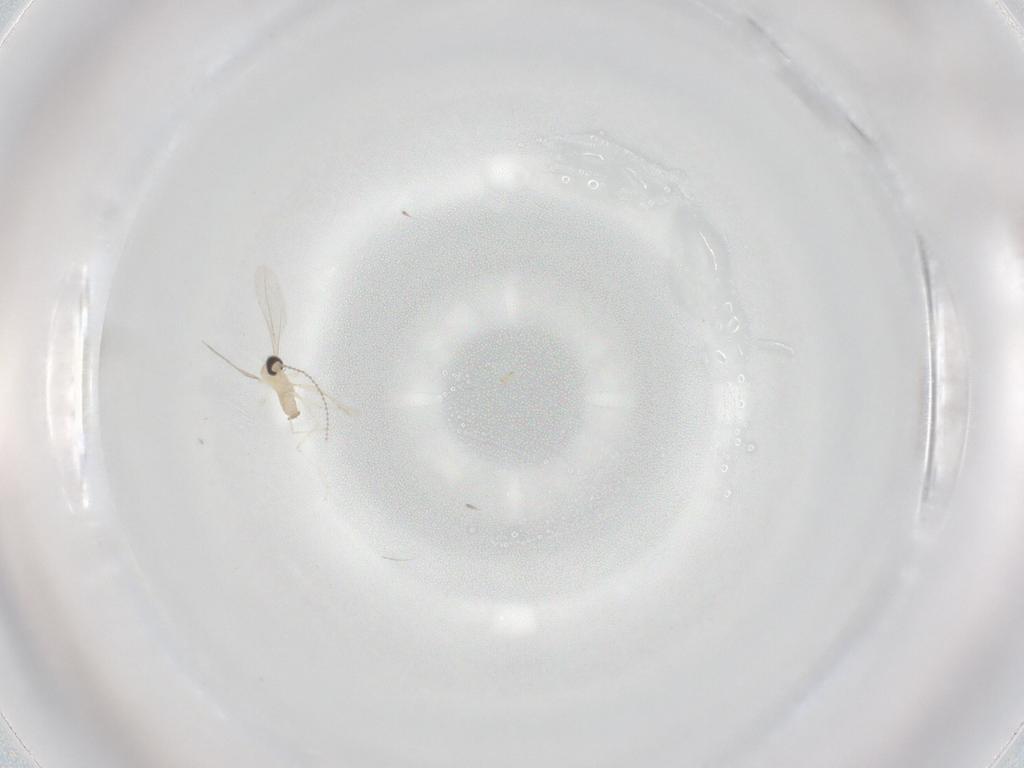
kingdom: Animalia
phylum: Arthropoda
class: Insecta
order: Diptera
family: Cecidomyiidae
